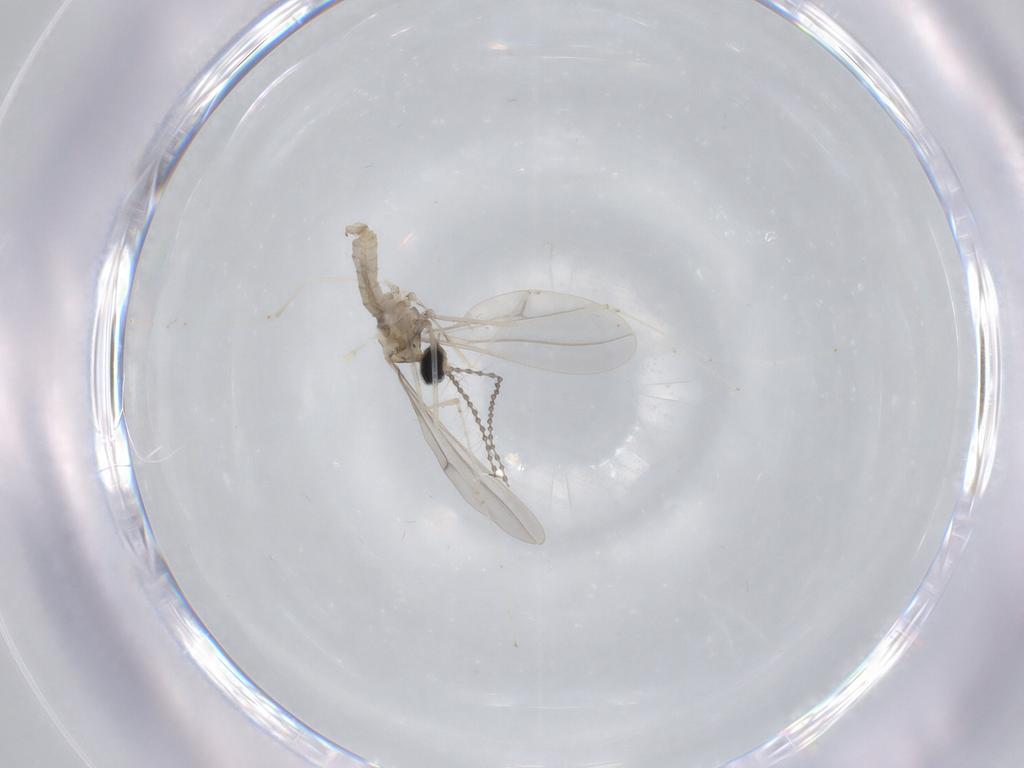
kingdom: Animalia
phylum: Arthropoda
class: Insecta
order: Diptera
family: Cecidomyiidae
